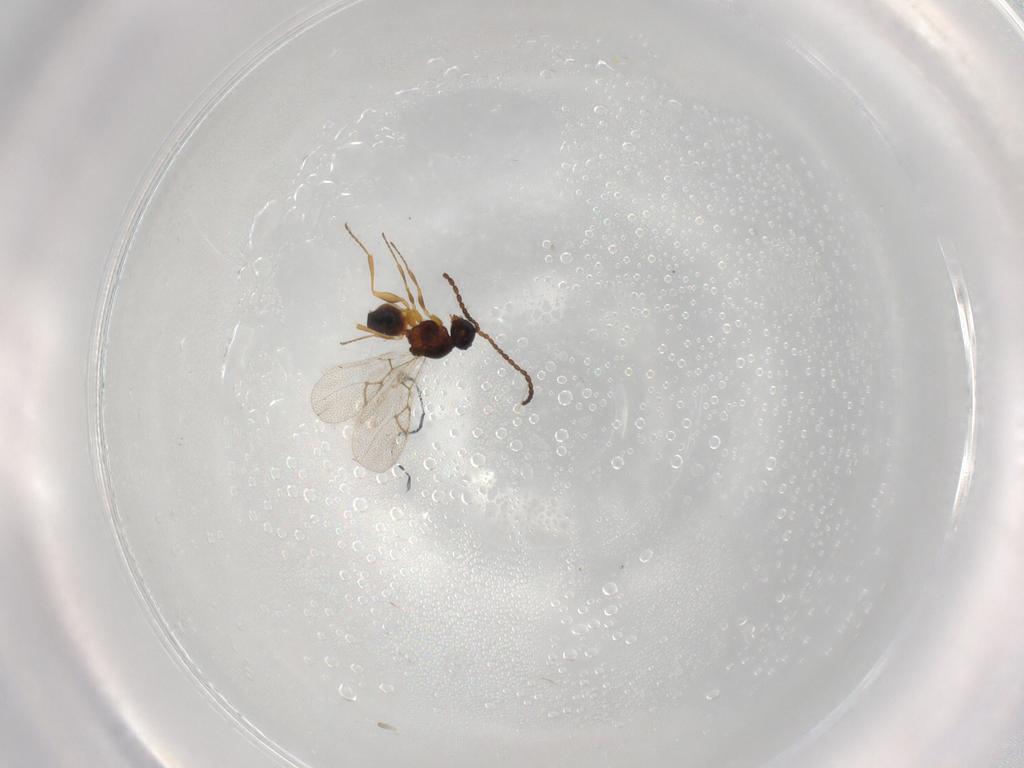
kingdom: Animalia
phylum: Arthropoda
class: Insecta
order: Hymenoptera
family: Figitidae
